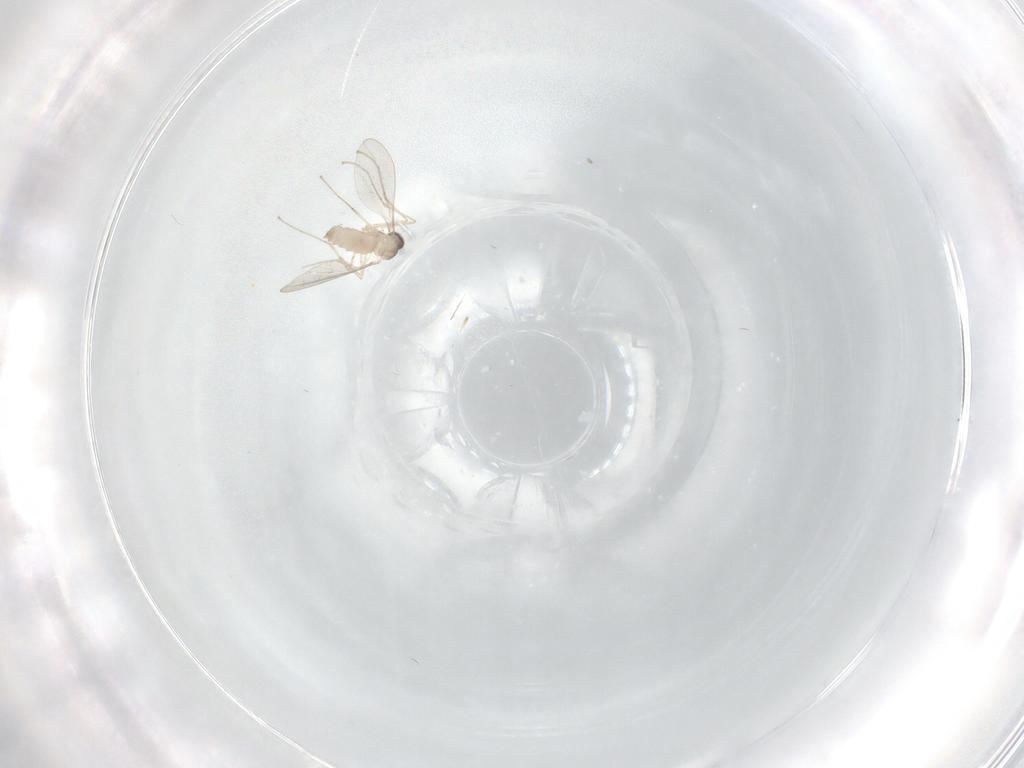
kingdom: Animalia
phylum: Arthropoda
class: Insecta
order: Diptera
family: Cecidomyiidae
